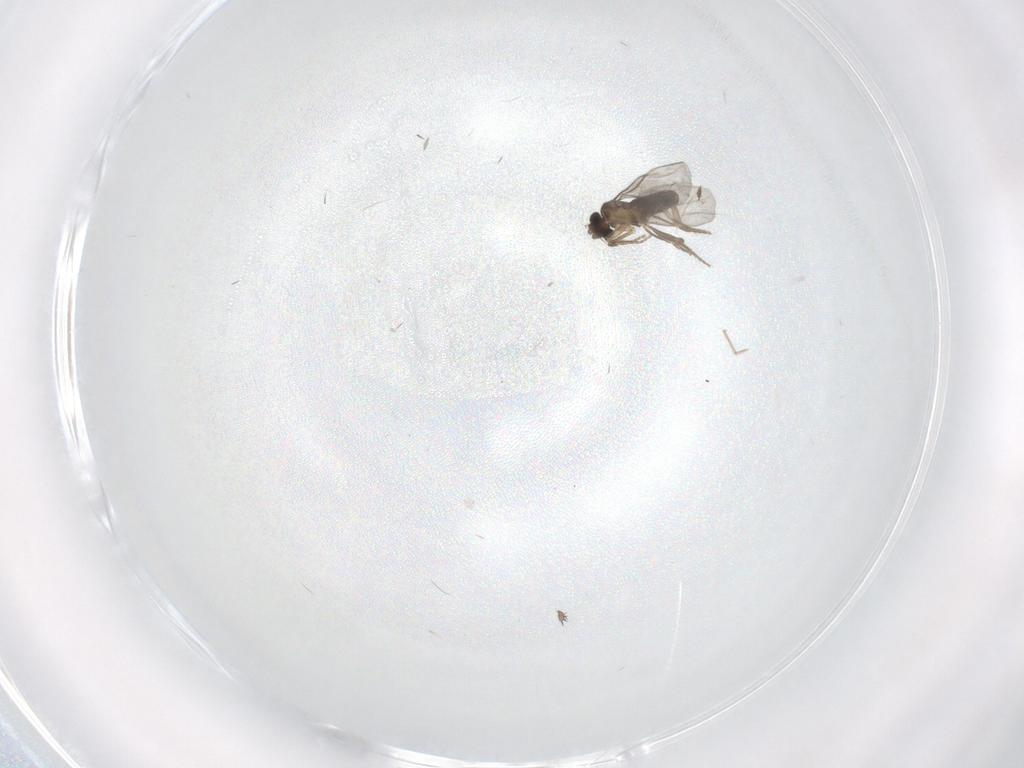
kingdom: Animalia
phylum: Arthropoda
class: Insecta
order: Diptera
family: Psychodidae
